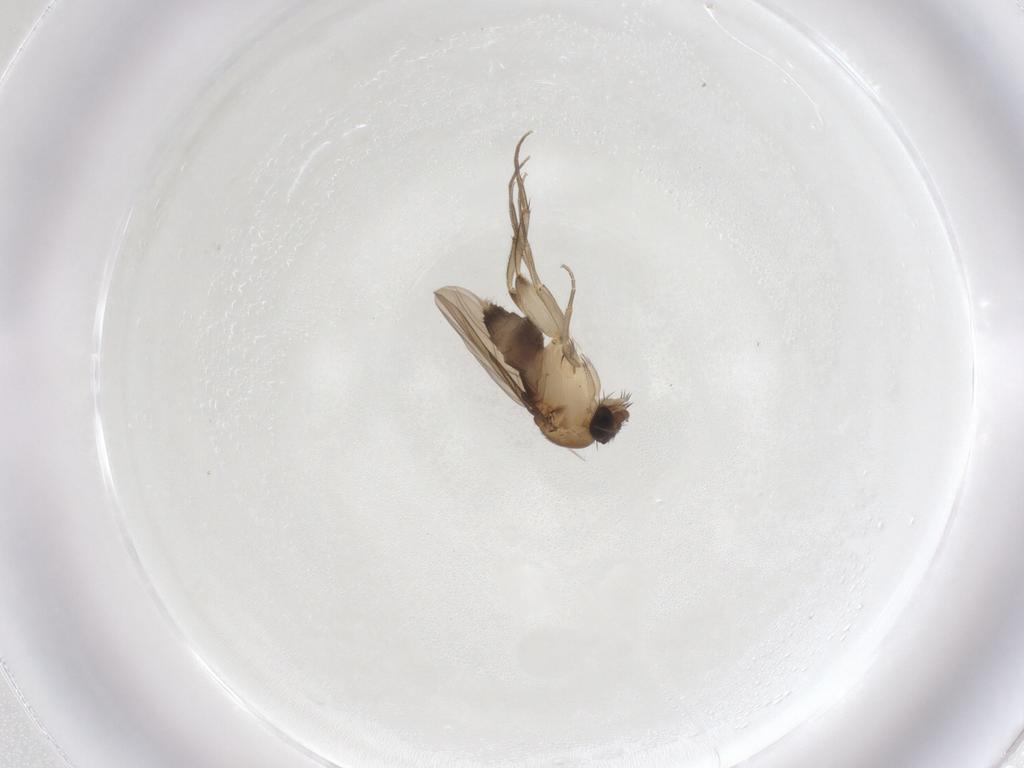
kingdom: Animalia
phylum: Arthropoda
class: Insecta
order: Diptera
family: Phoridae
